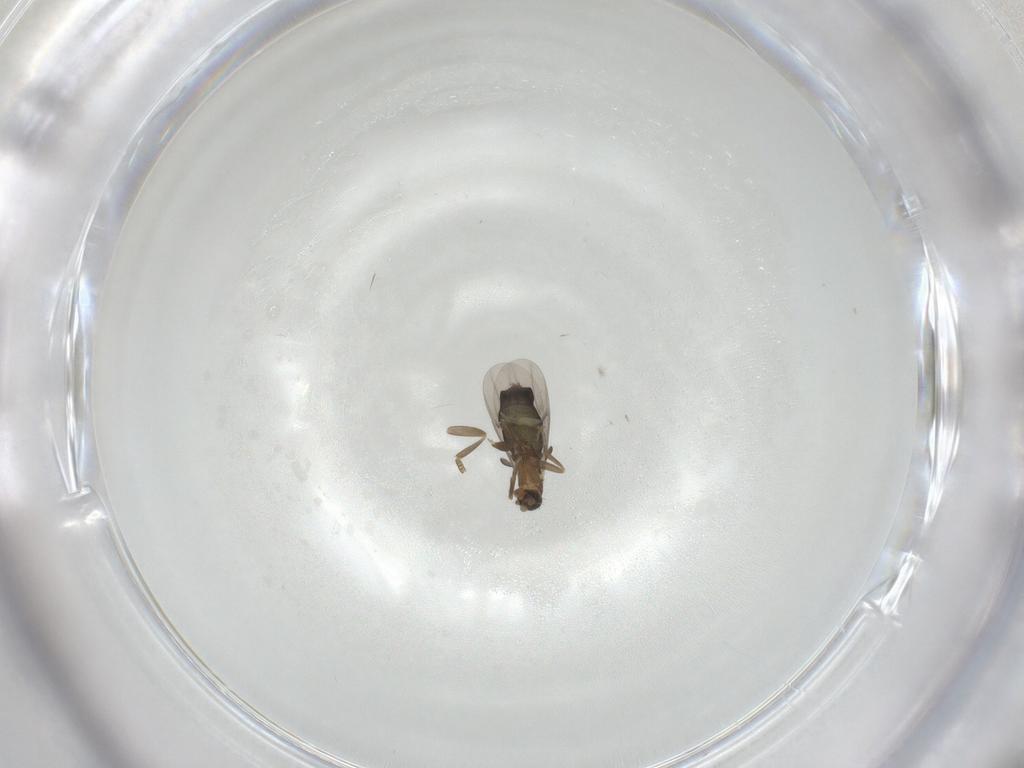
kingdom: Animalia
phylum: Arthropoda
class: Insecta
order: Diptera
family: Phoridae
